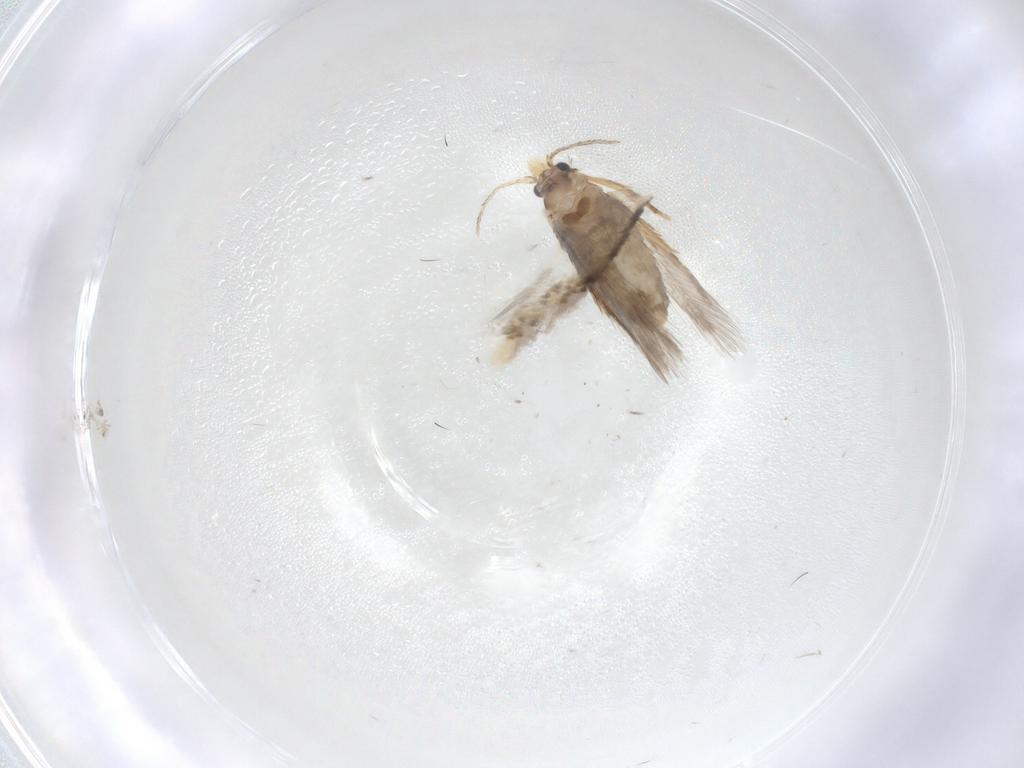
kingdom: Animalia
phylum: Arthropoda
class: Insecta
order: Lepidoptera
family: Nepticulidae
